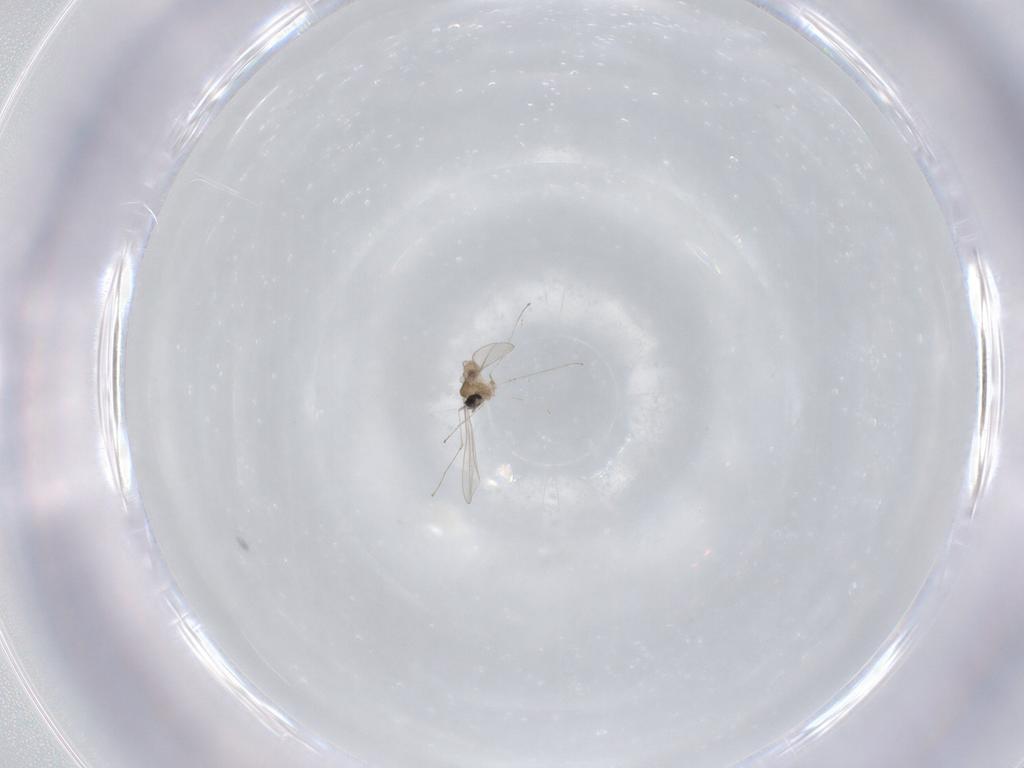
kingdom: Animalia
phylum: Arthropoda
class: Insecta
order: Diptera
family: Cecidomyiidae
